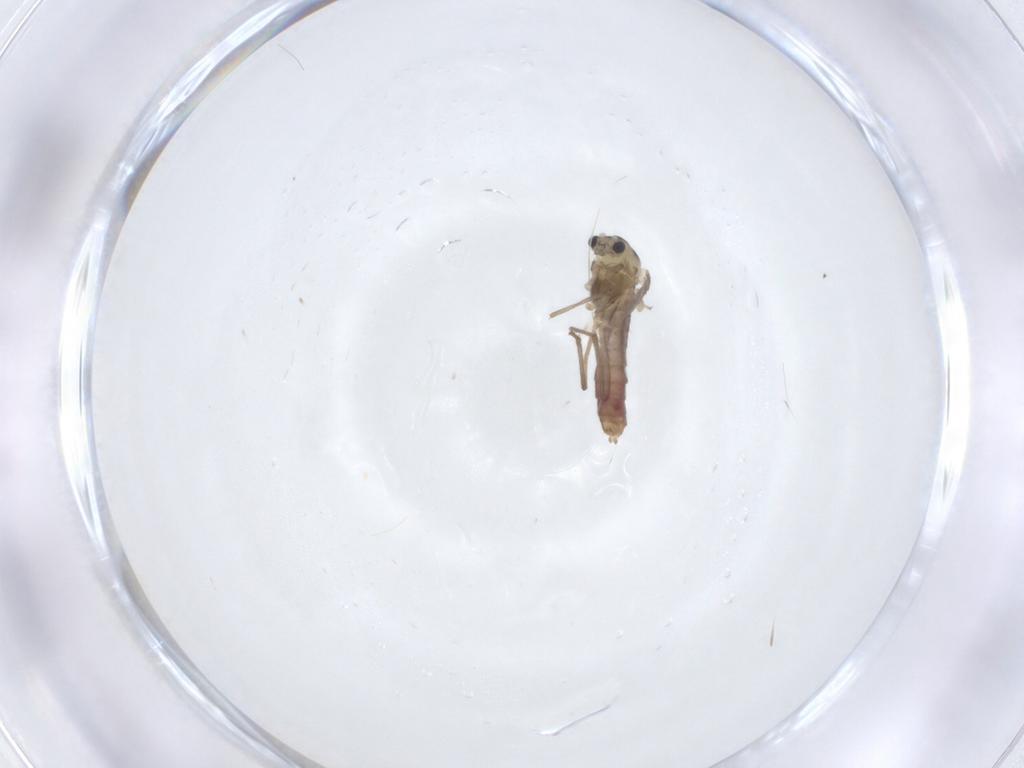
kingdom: Animalia
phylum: Arthropoda
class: Insecta
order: Diptera
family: Chironomidae
